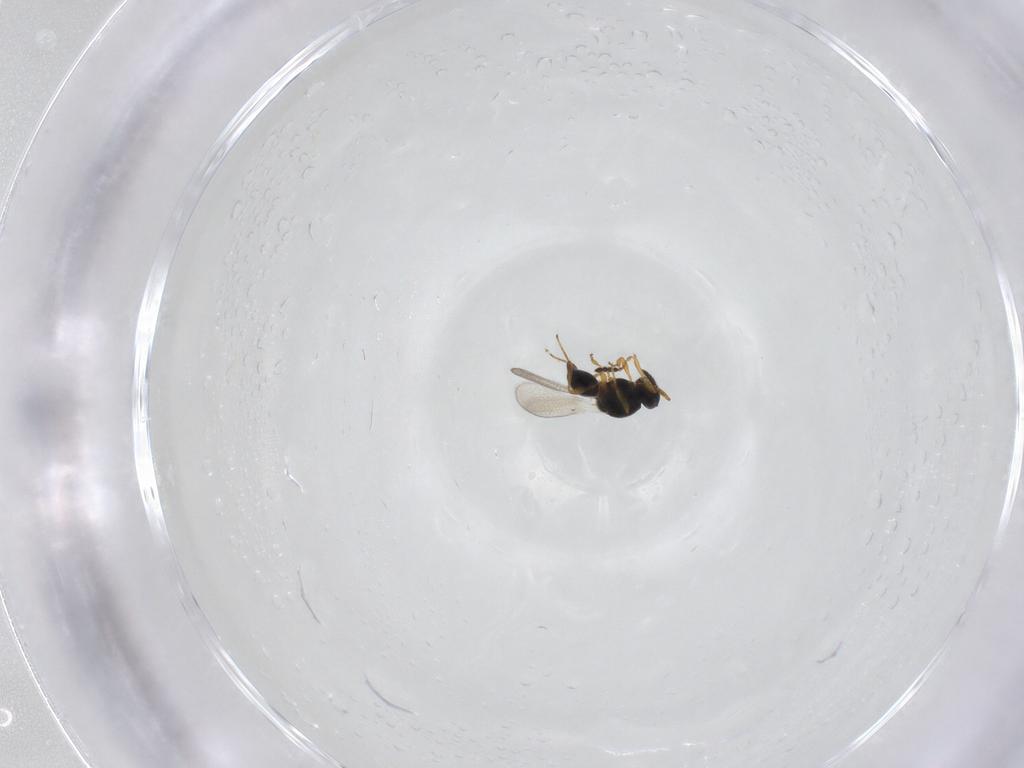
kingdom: Animalia
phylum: Arthropoda
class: Insecta
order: Hymenoptera
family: Platygastridae
